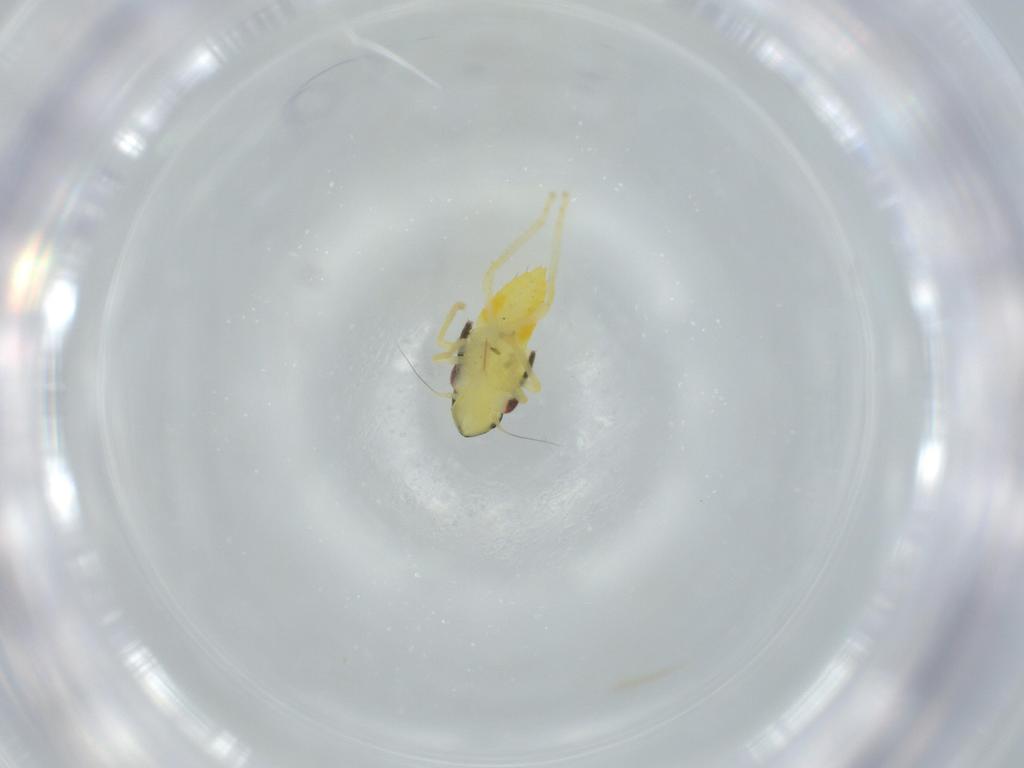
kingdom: Animalia
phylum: Arthropoda
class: Insecta
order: Hemiptera
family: Cicadellidae
